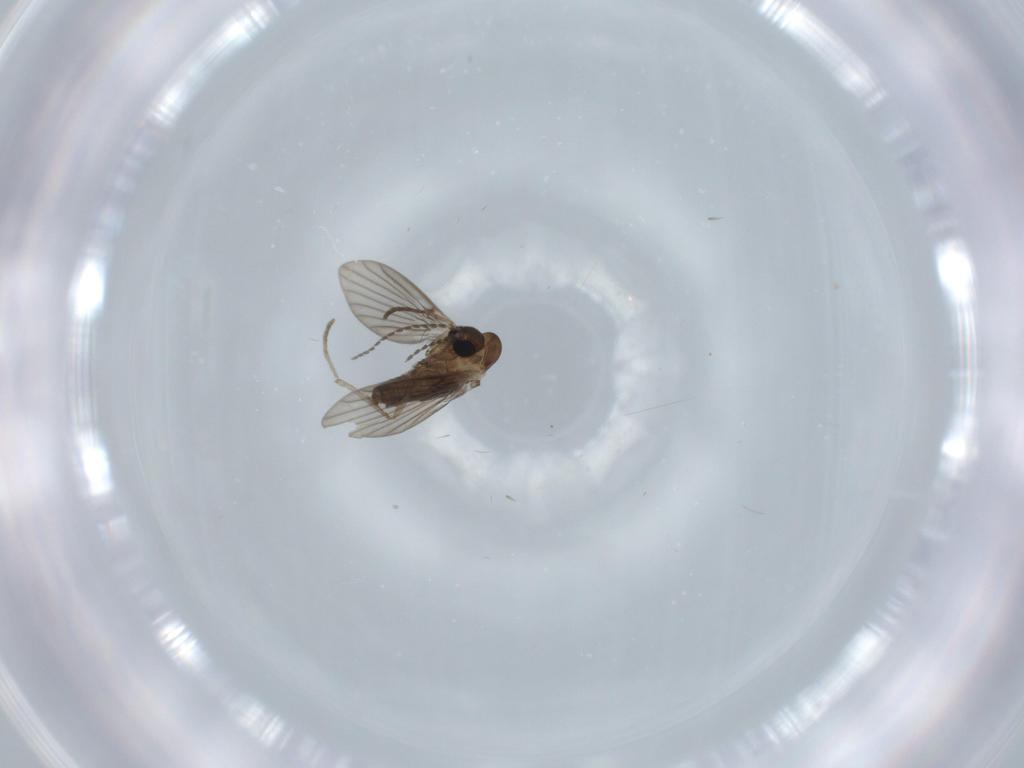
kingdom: Animalia
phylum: Arthropoda
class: Insecta
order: Diptera
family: Psychodidae
